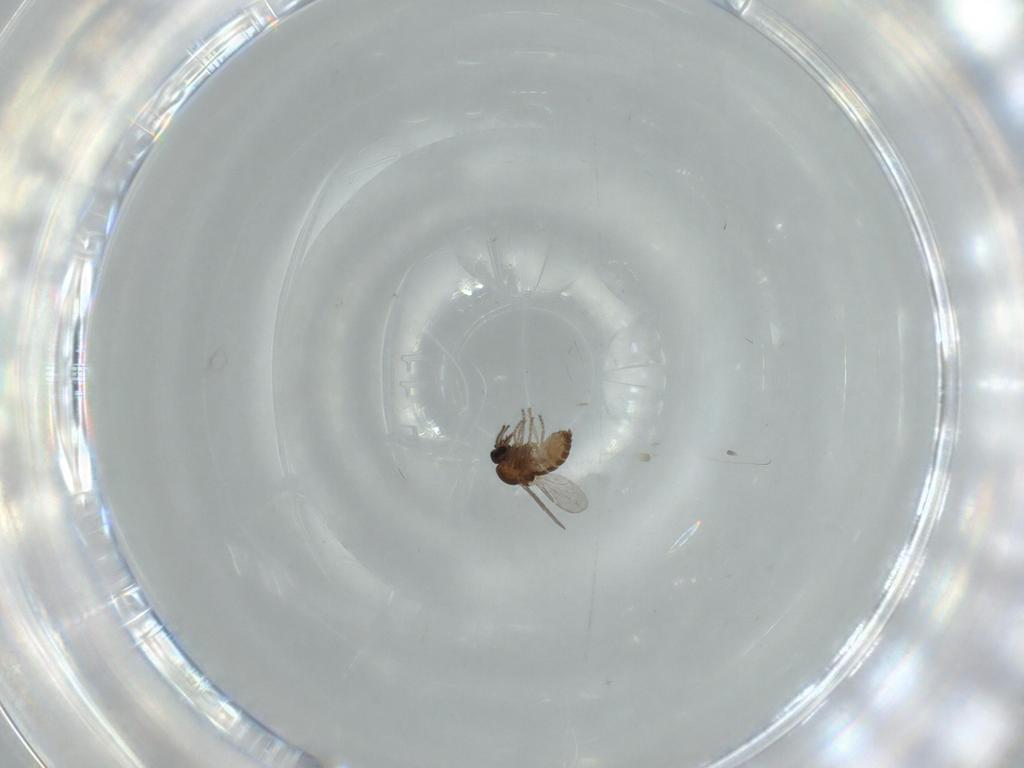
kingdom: Animalia
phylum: Arthropoda
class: Insecta
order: Diptera
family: Ceratopogonidae
